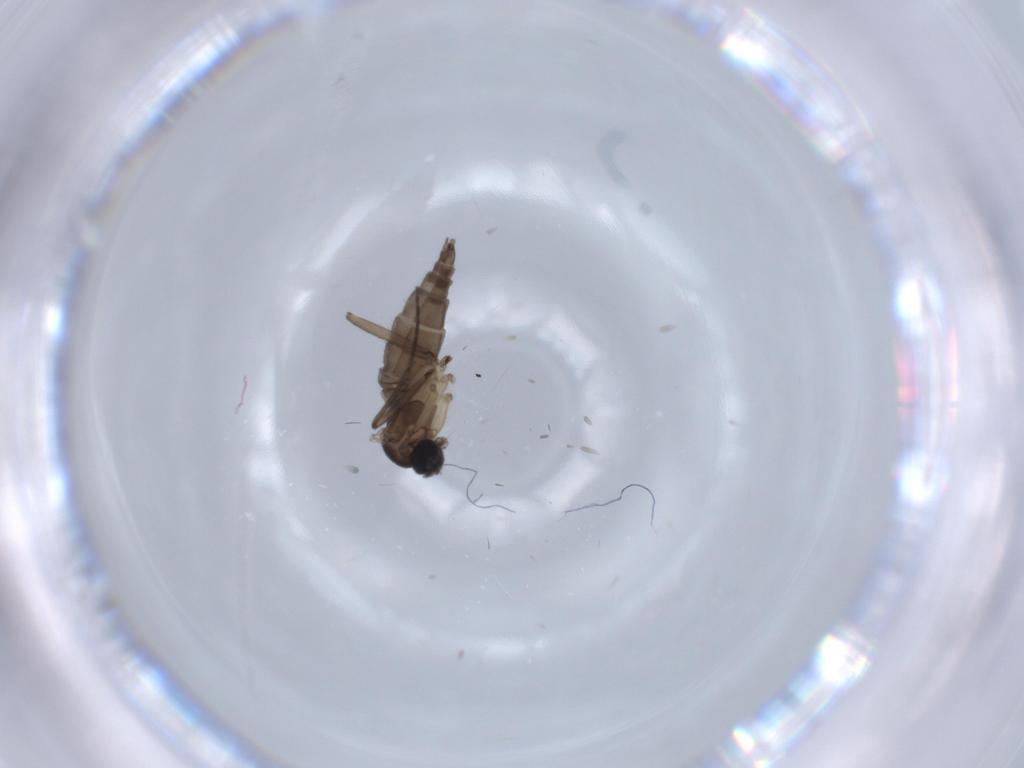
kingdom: Animalia
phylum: Arthropoda
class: Insecta
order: Diptera
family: Sciaridae
